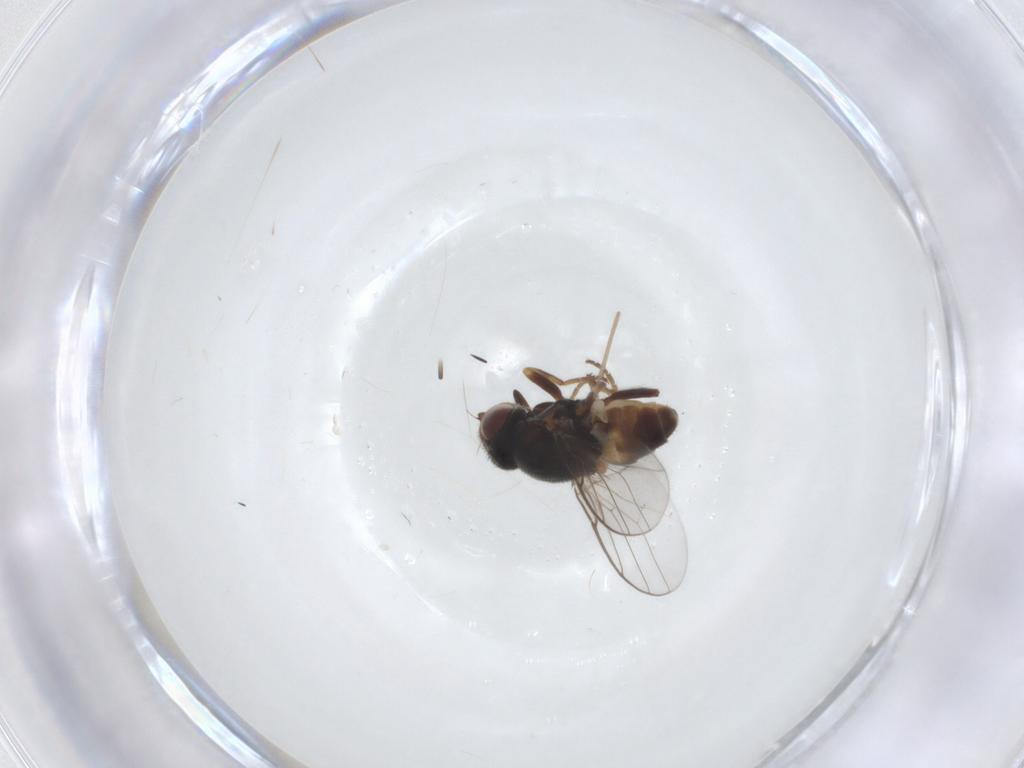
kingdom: Animalia
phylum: Arthropoda
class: Insecta
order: Diptera
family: Chloropidae
